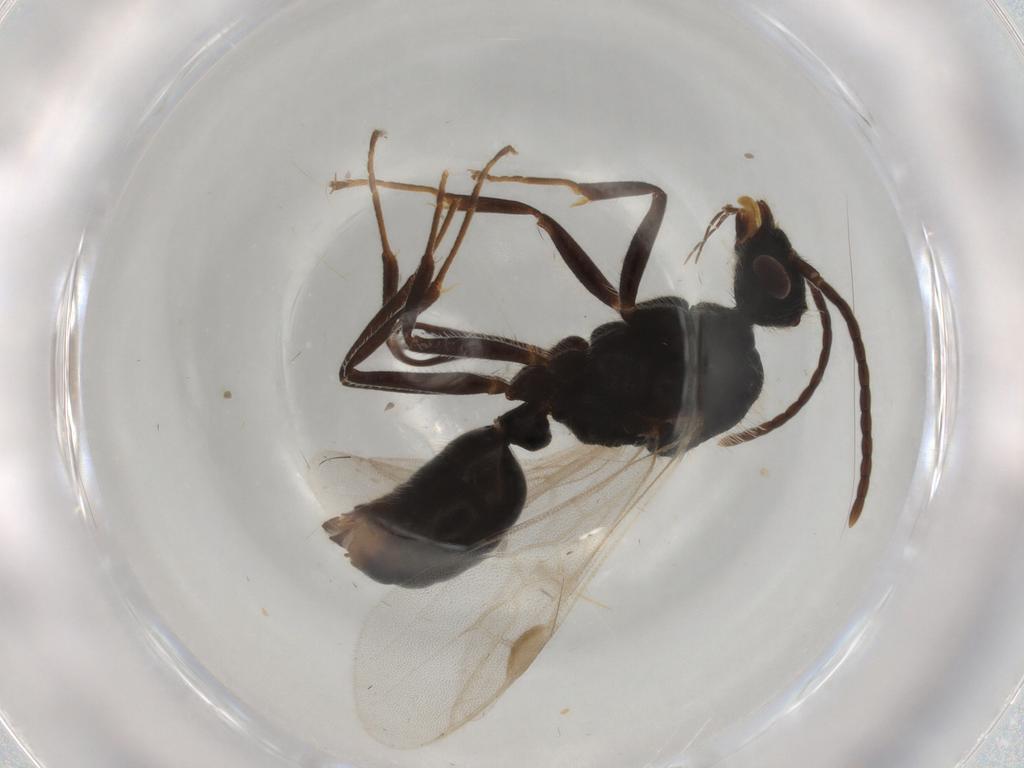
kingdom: Animalia
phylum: Arthropoda
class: Insecta
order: Hymenoptera
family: Formicidae
